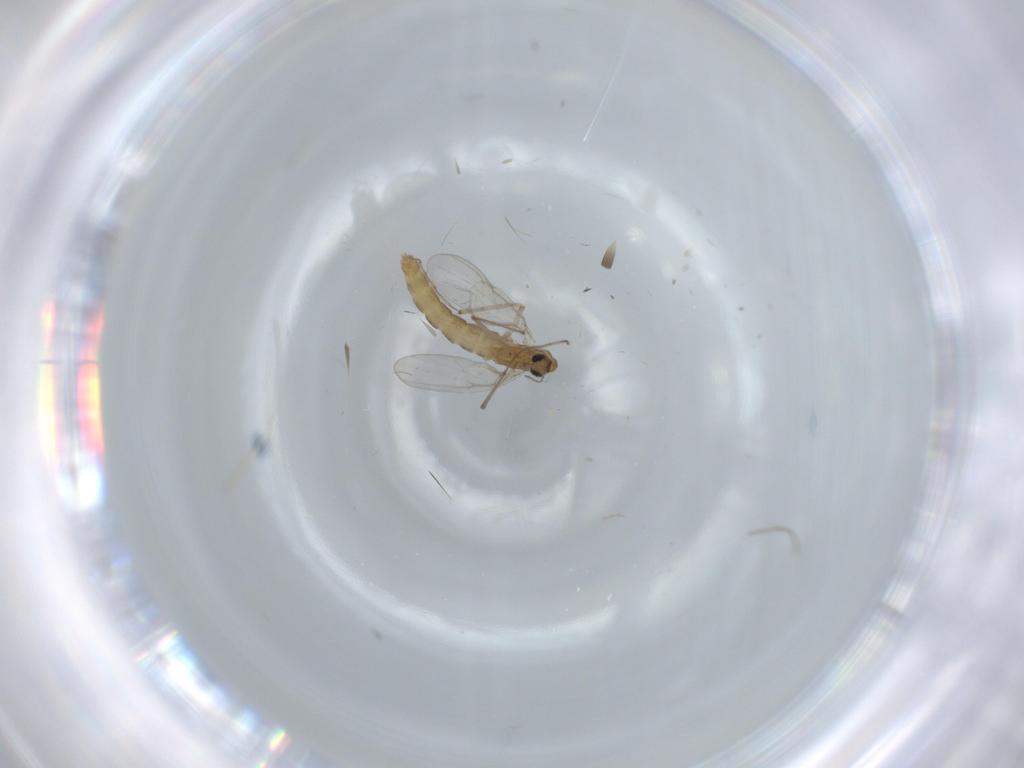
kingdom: Animalia
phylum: Arthropoda
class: Insecta
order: Diptera
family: Chironomidae
